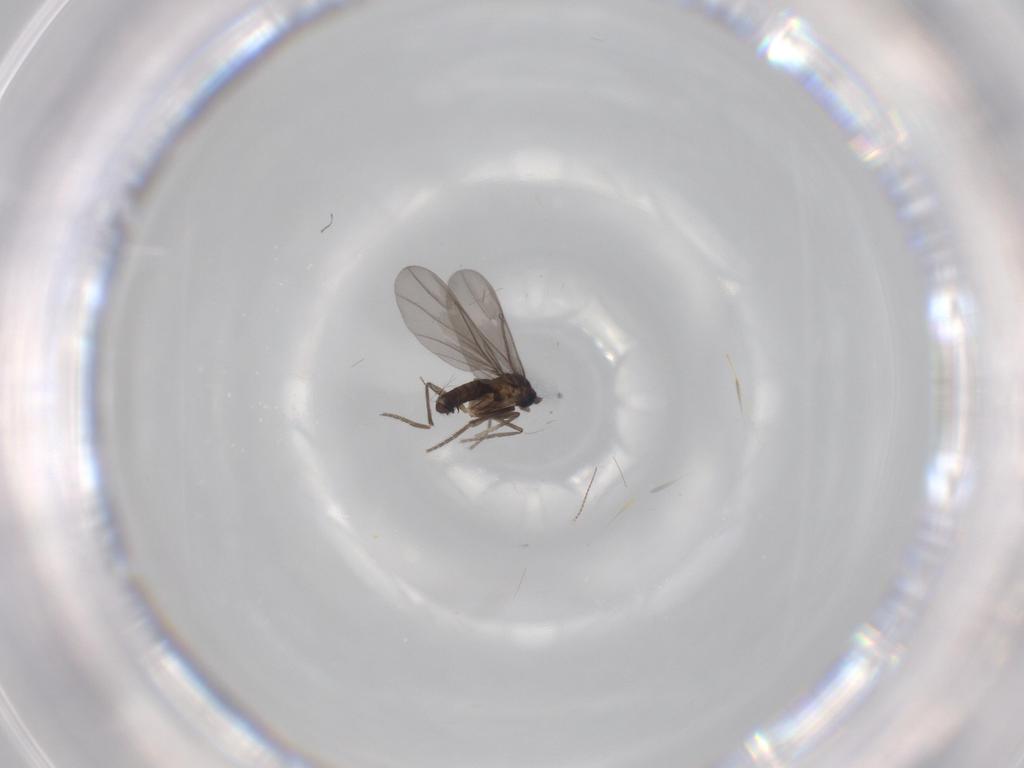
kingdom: Animalia
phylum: Arthropoda
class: Insecta
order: Diptera
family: Phoridae
